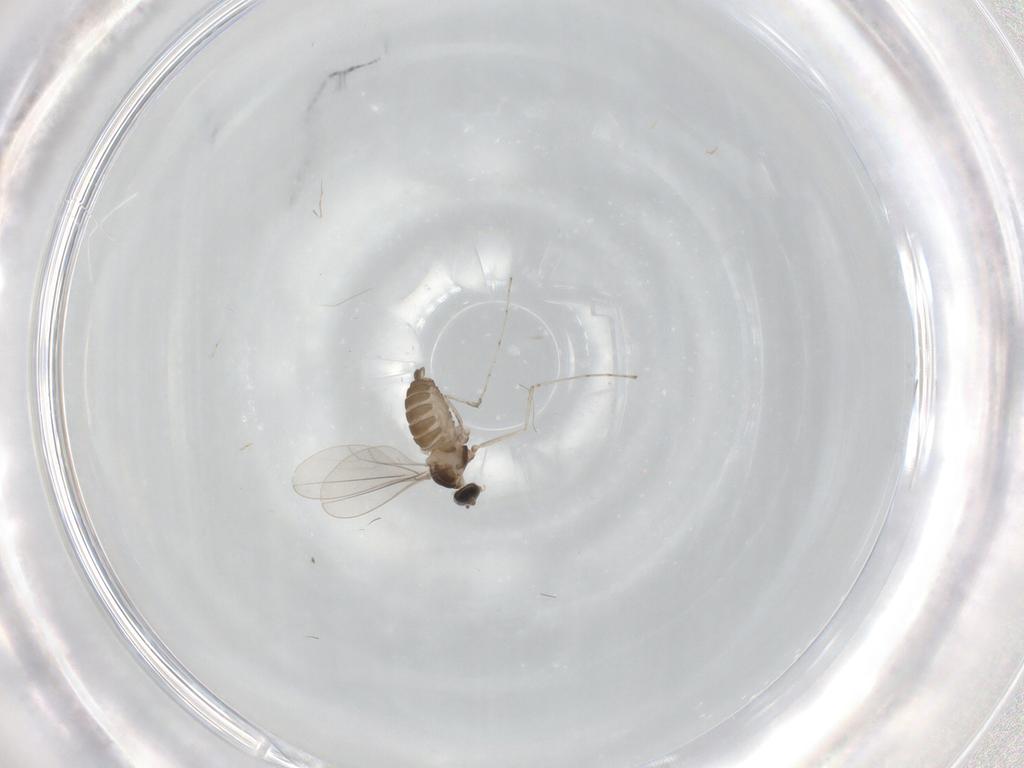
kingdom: Animalia
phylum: Arthropoda
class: Insecta
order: Diptera
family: Cecidomyiidae
